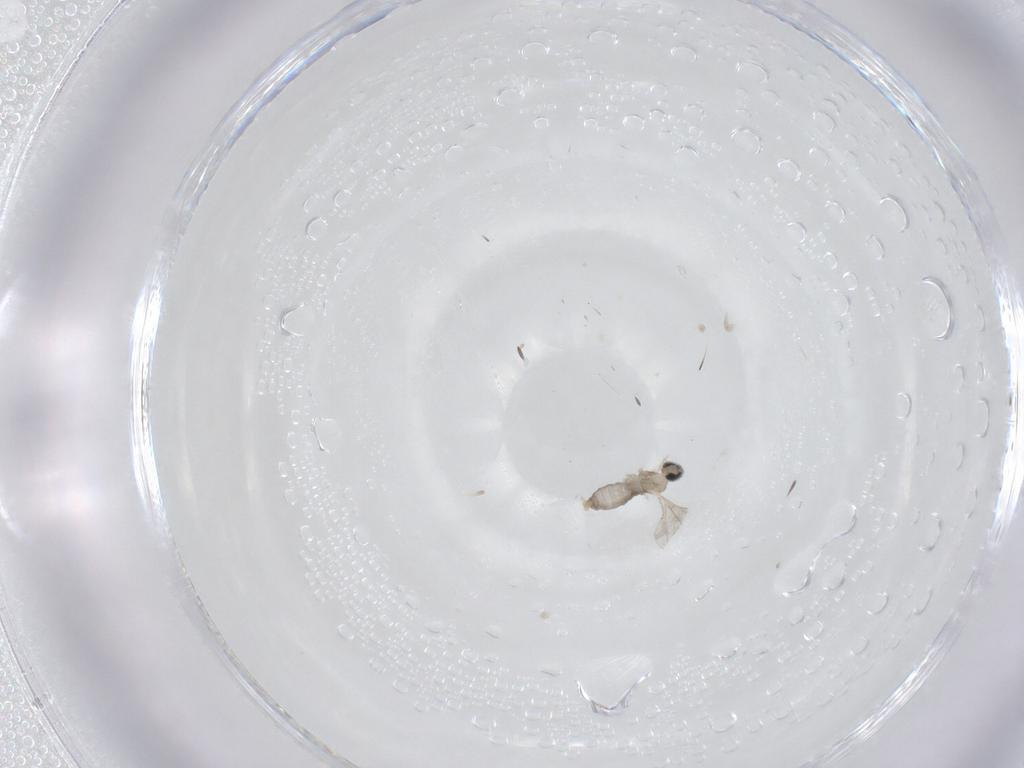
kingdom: Animalia
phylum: Arthropoda
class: Insecta
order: Diptera
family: Cecidomyiidae
